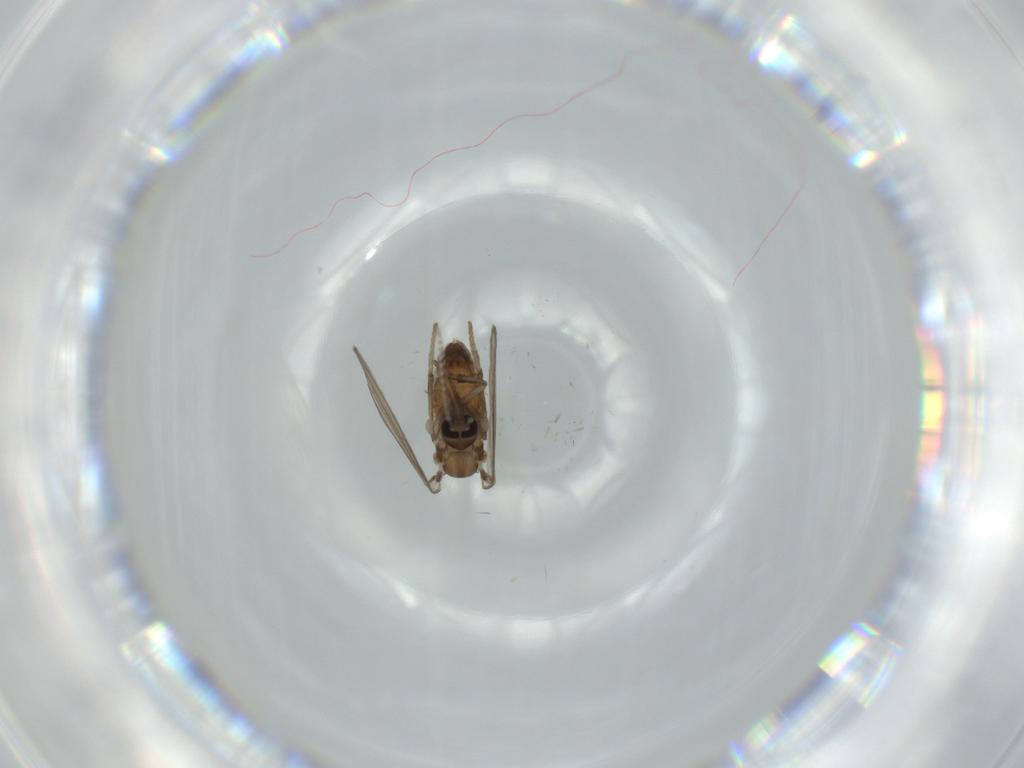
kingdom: Animalia
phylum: Arthropoda
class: Insecta
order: Diptera
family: Psychodidae
